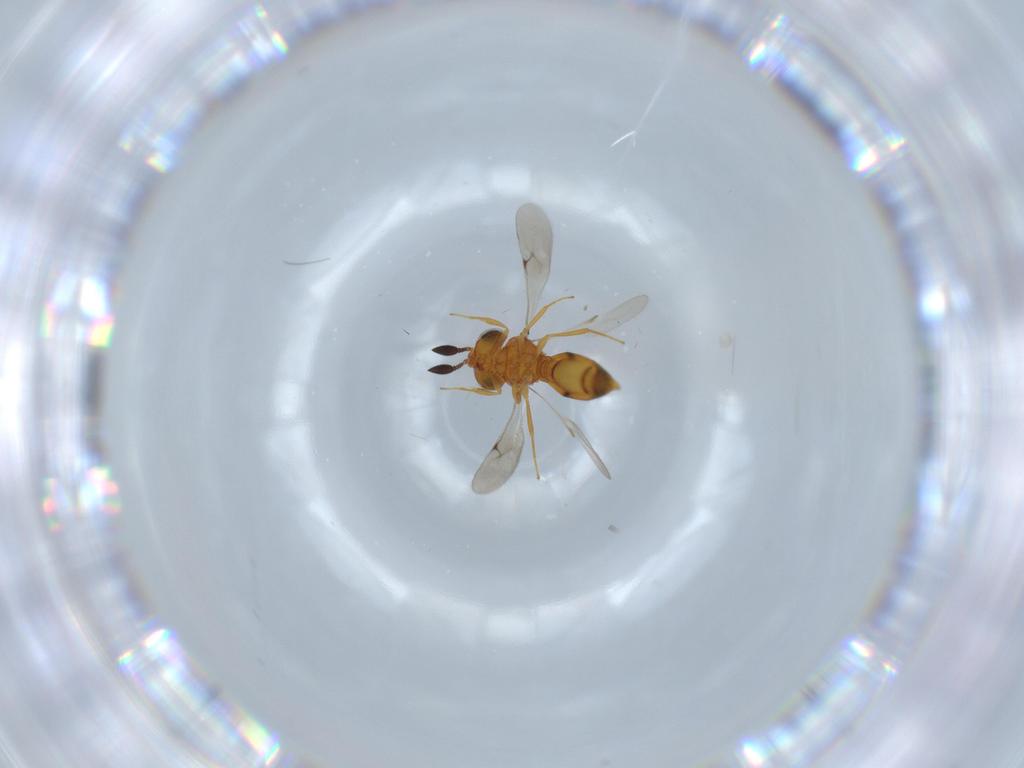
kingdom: Animalia
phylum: Arthropoda
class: Insecta
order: Hymenoptera
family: Scelionidae
